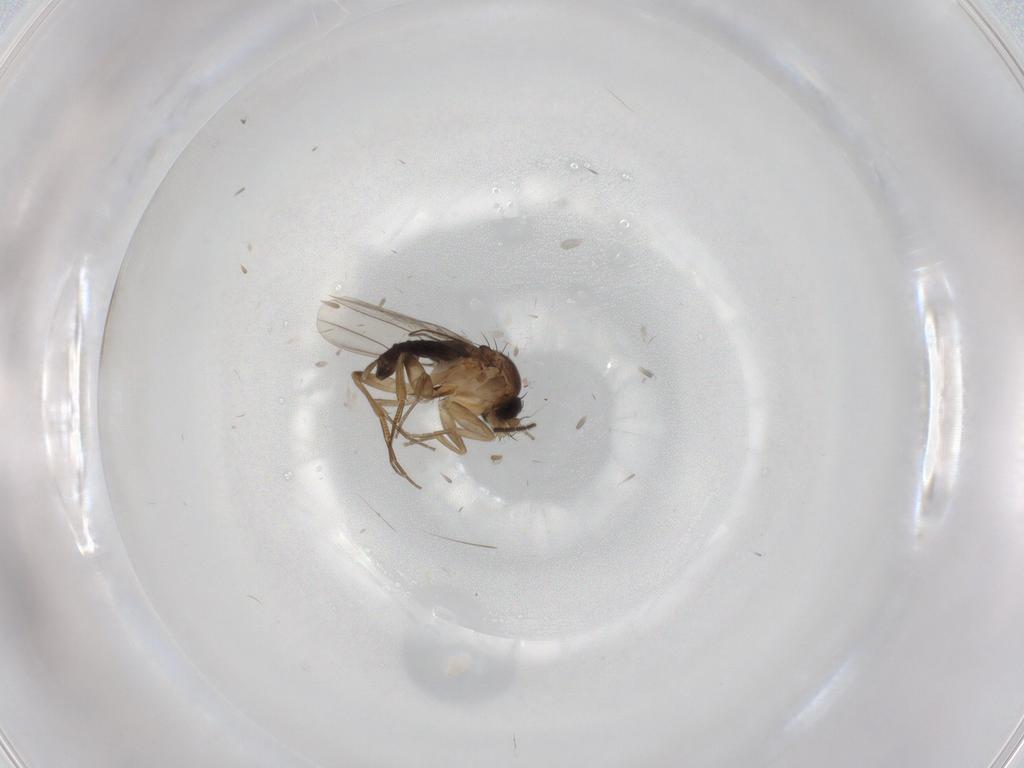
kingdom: Animalia
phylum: Arthropoda
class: Insecta
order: Diptera
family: Phoridae
